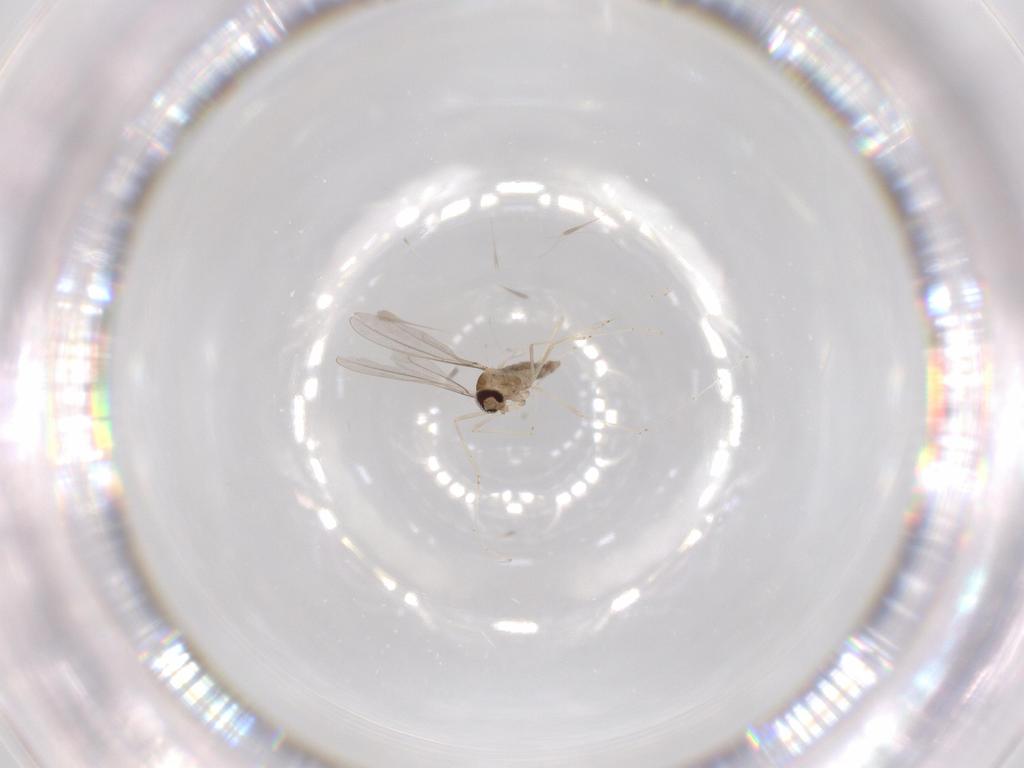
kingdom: Animalia
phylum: Arthropoda
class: Insecta
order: Diptera
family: Cecidomyiidae
